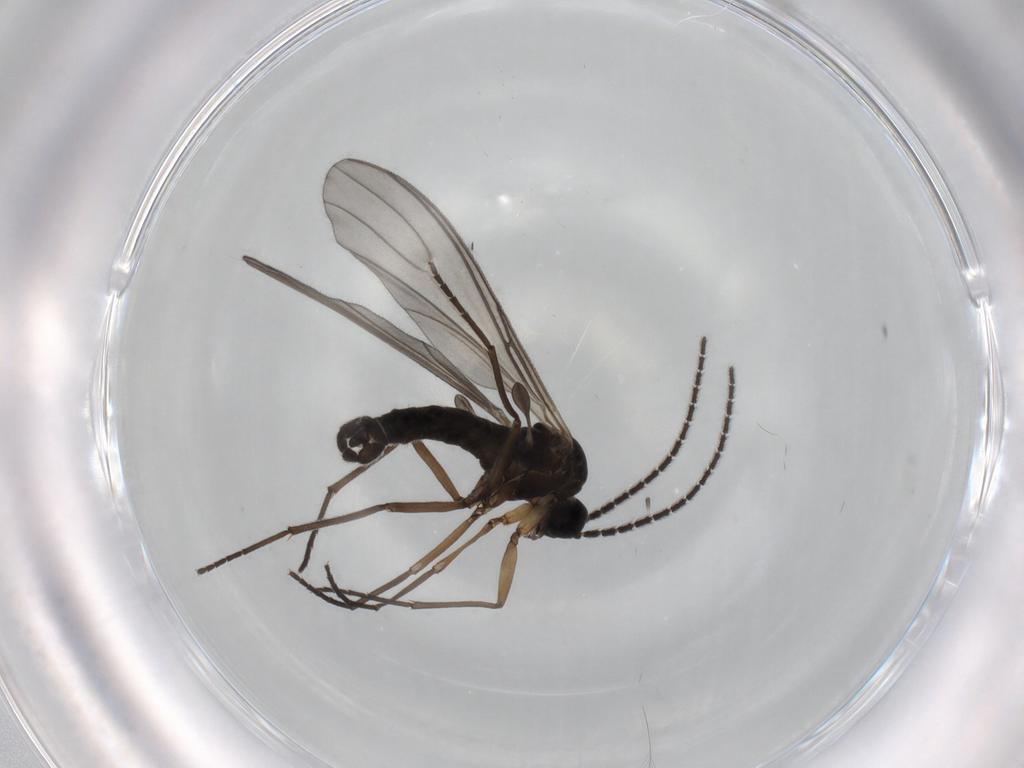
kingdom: Animalia
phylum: Arthropoda
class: Insecta
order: Diptera
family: Sciaridae
